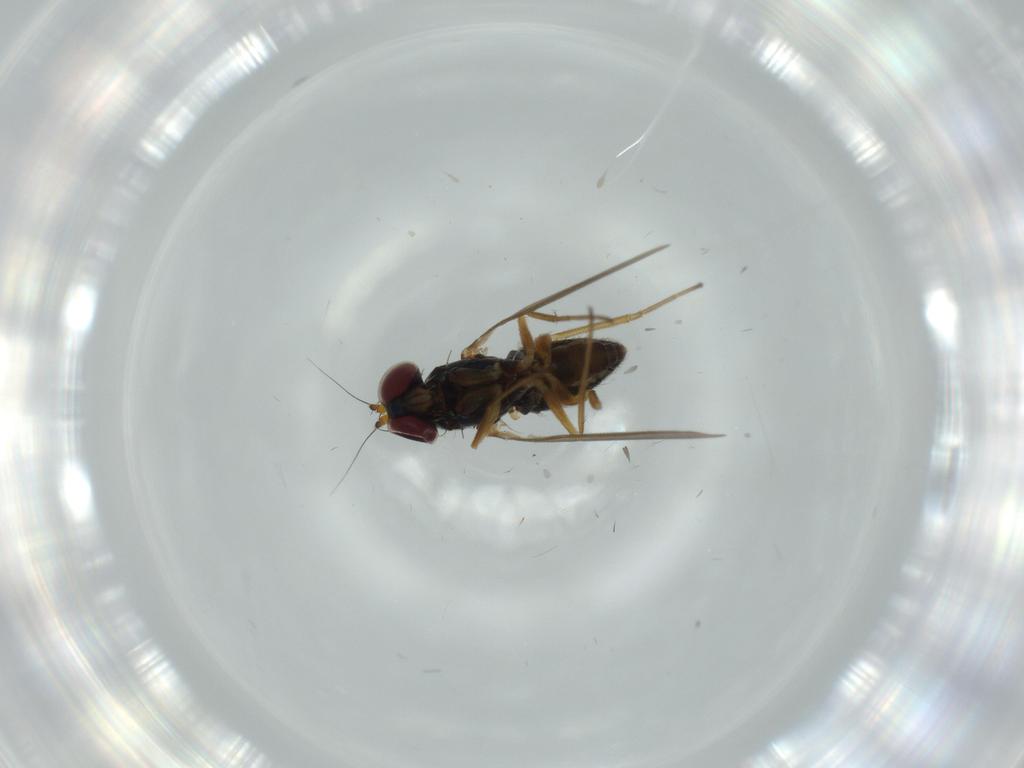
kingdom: Animalia
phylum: Arthropoda
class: Insecta
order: Diptera
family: Dolichopodidae
